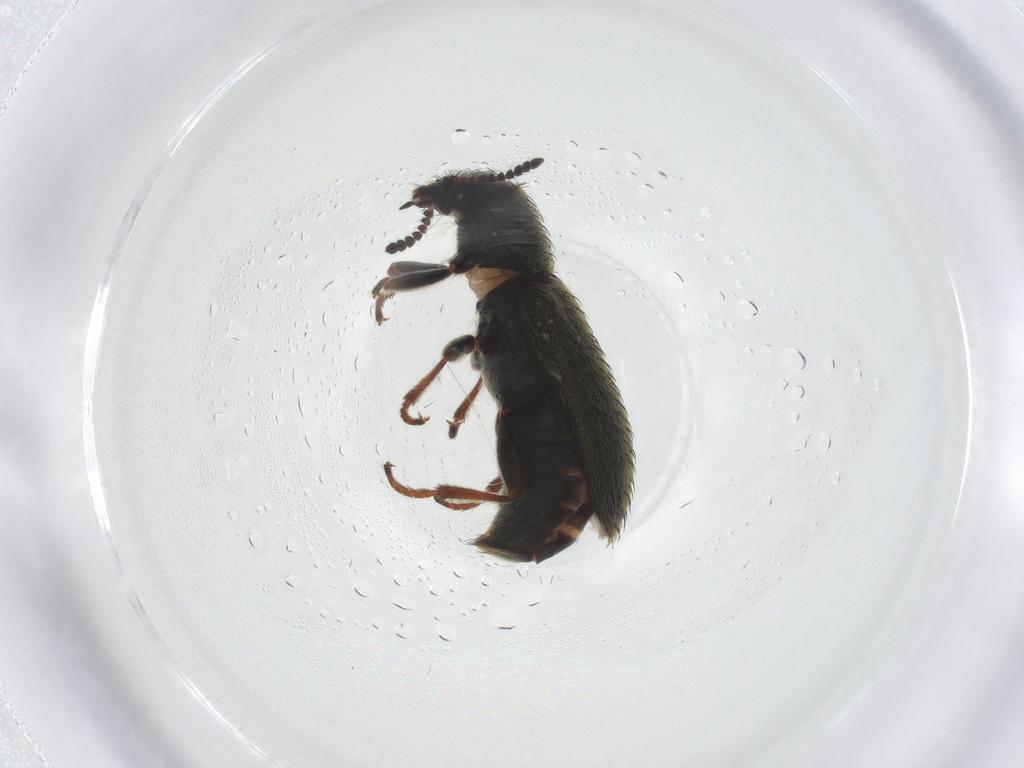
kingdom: Animalia
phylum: Arthropoda
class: Insecta
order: Coleoptera
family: Melyridae
